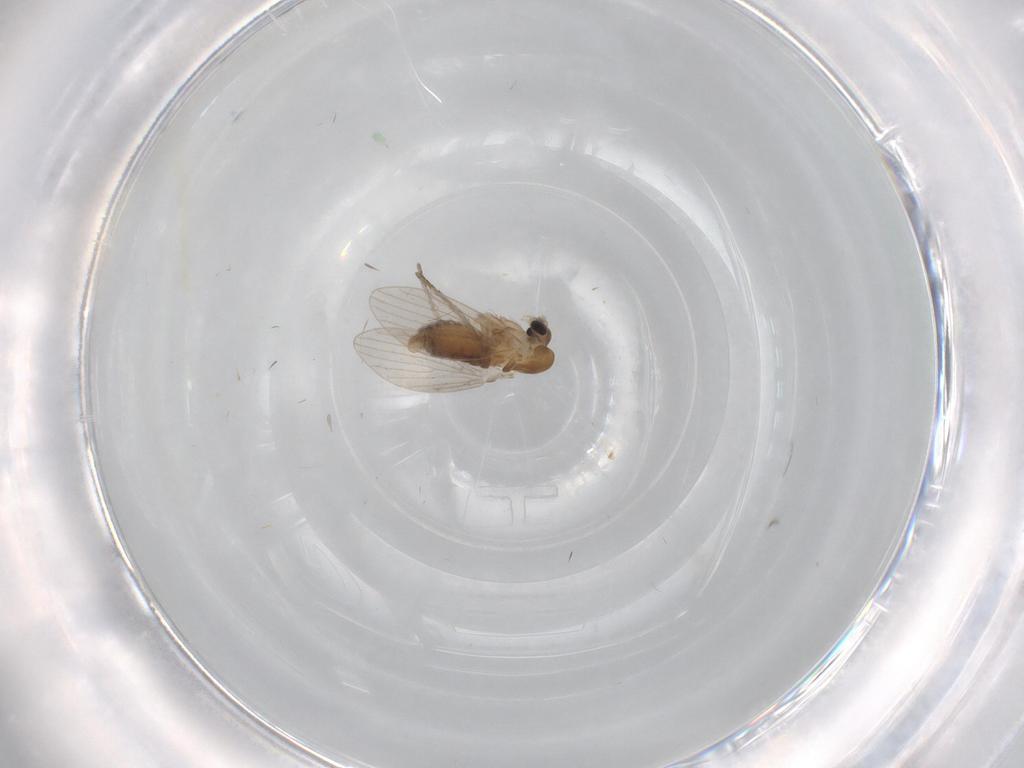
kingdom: Animalia
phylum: Arthropoda
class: Insecta
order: Diptera
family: Psychodidae
